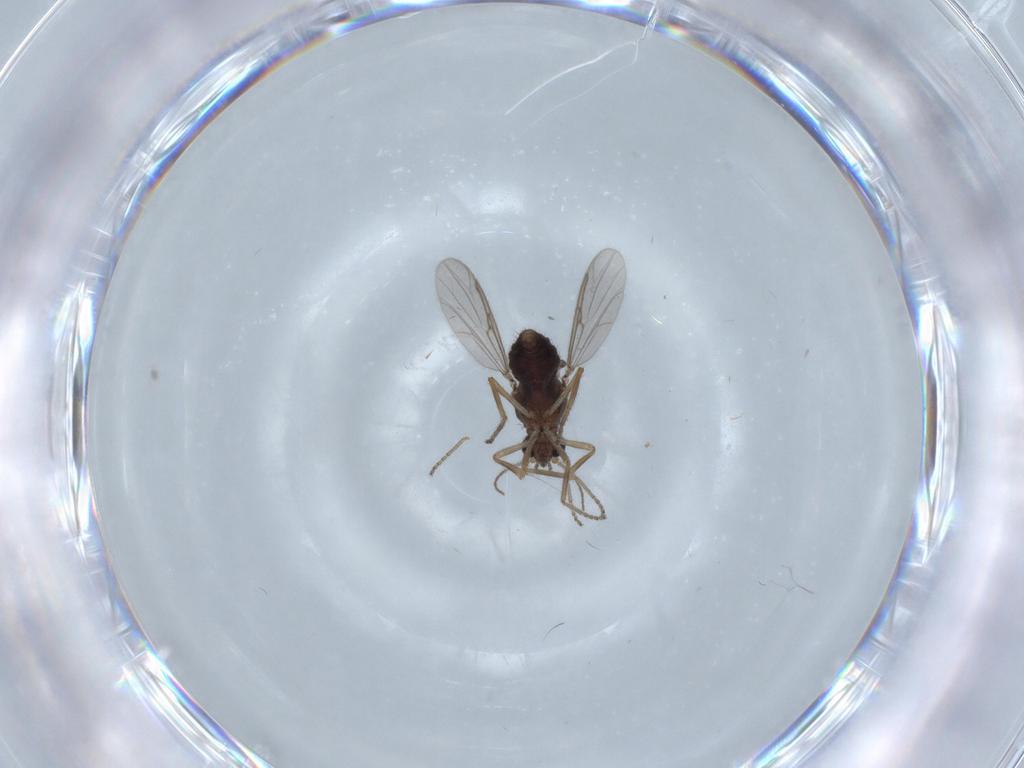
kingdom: Animalia
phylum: Arthropoda
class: Insecta
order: Diptera
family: Ceratopogonidae
